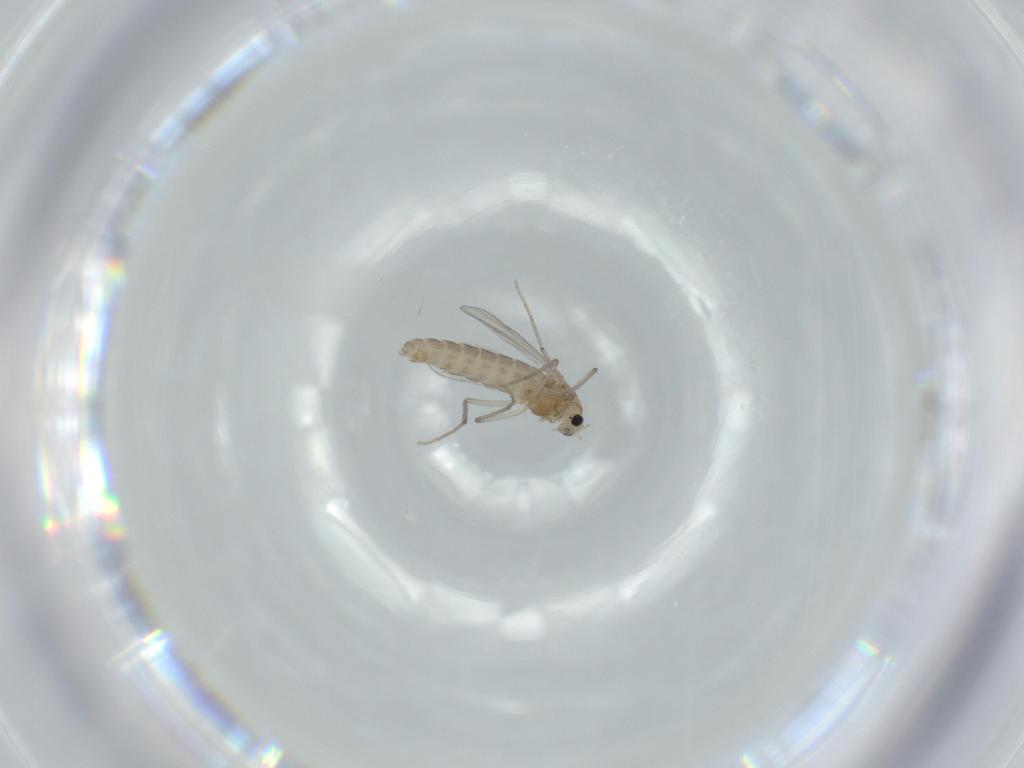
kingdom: Animalia
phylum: Arthropoda
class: Insecta
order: Diptera
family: Chironomidae
